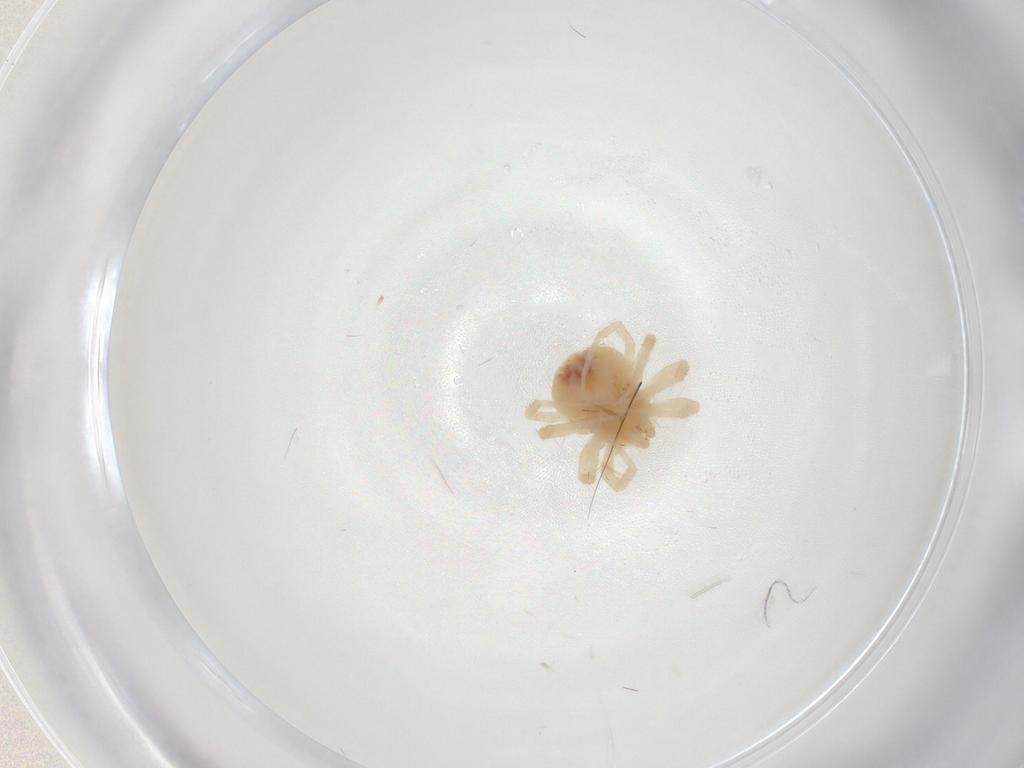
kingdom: Animalia
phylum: Arthropoda
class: Arachnida
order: Trombidiformes
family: Anystidae
